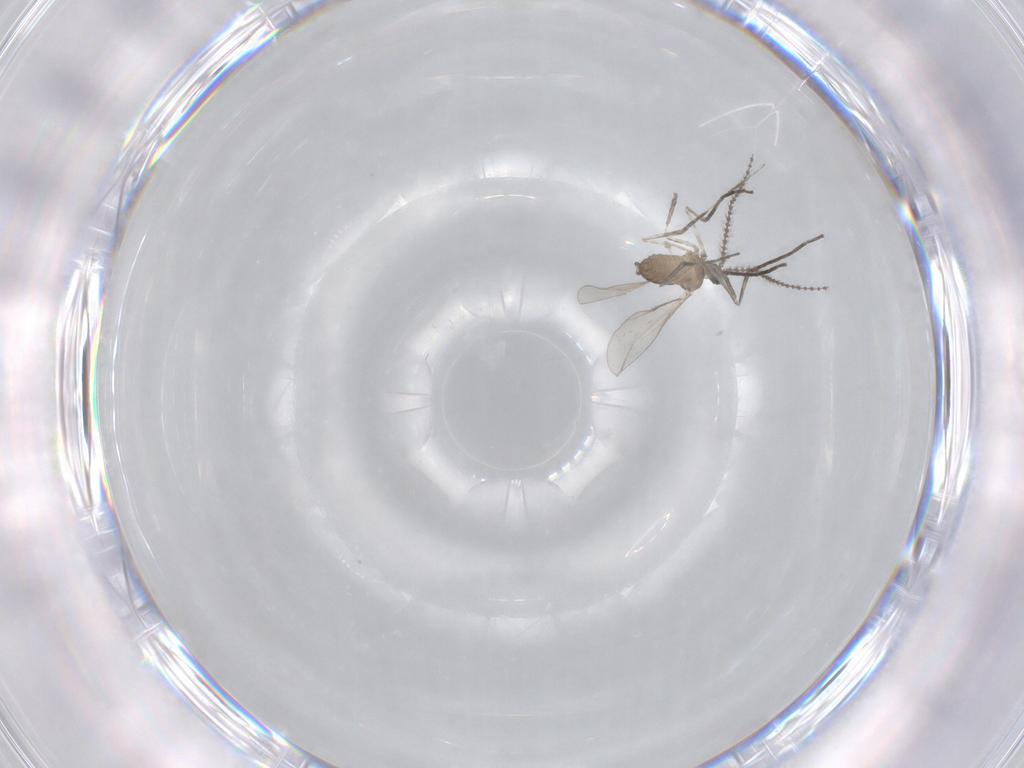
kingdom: Animalia
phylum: Arthropoda
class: Insecta
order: Diptera
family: Cecidomyiidae
